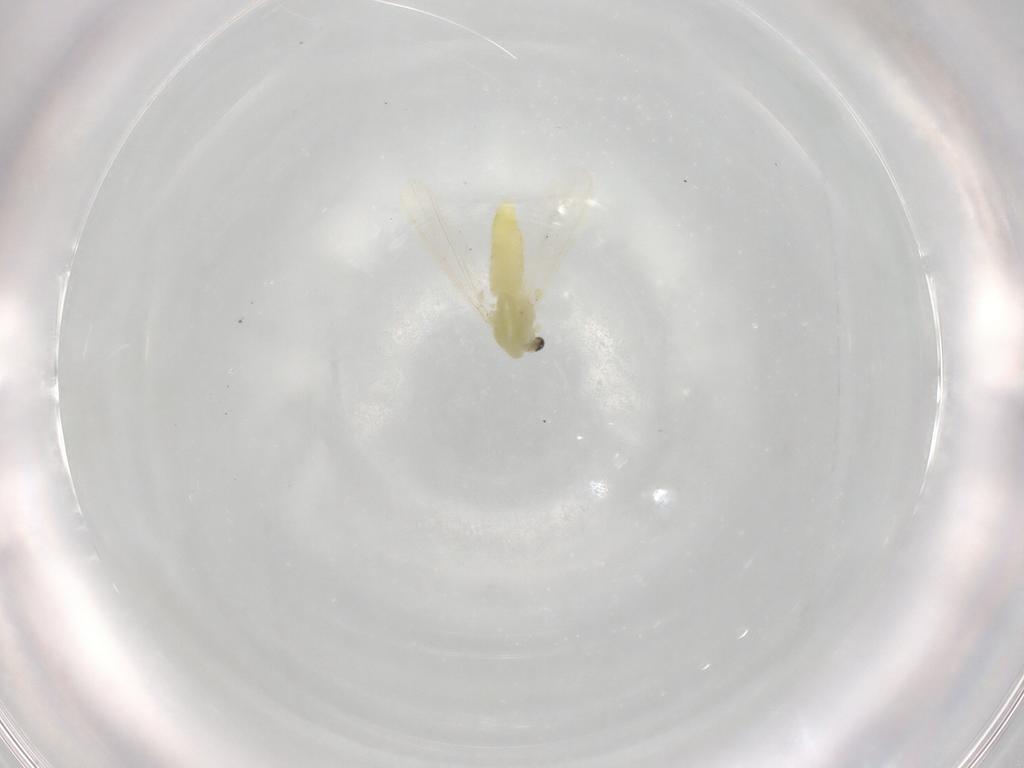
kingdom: Animalia
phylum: Arthropoda
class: Insecta
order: Diptera
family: Chironomidae
